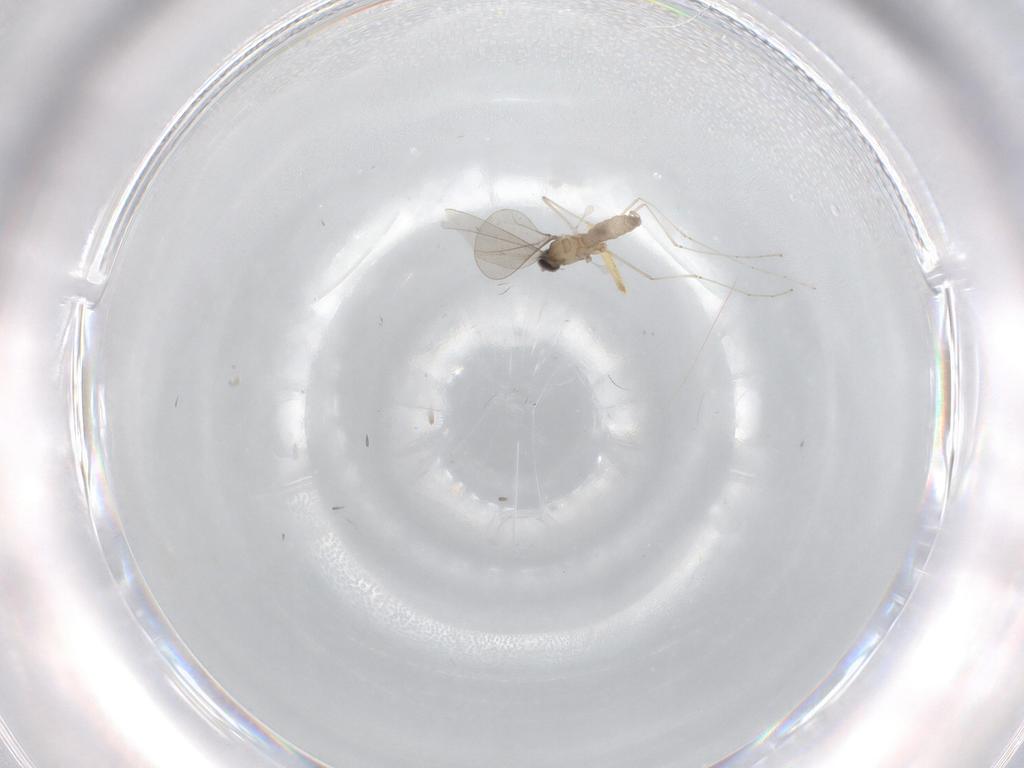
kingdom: Animalia
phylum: Arthropoda
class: Insecta
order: Diptera
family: Cecidomyiidae
